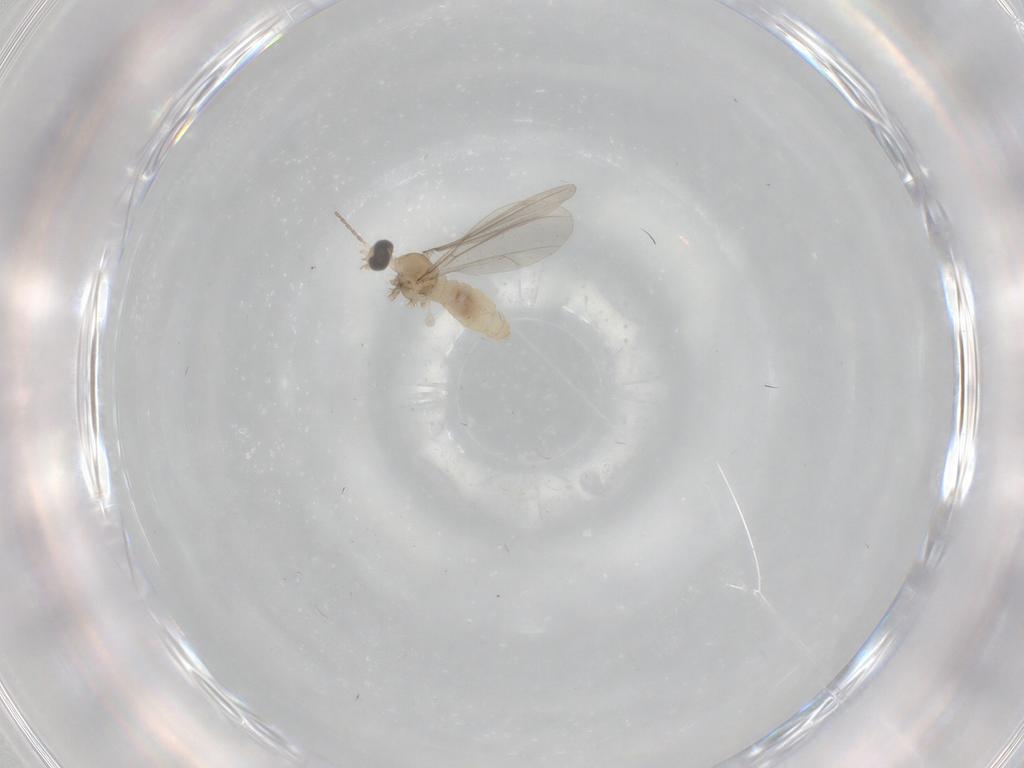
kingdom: Animalia
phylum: Arthropoda
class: Insecta
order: Diptera
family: Cecidomyiidae
